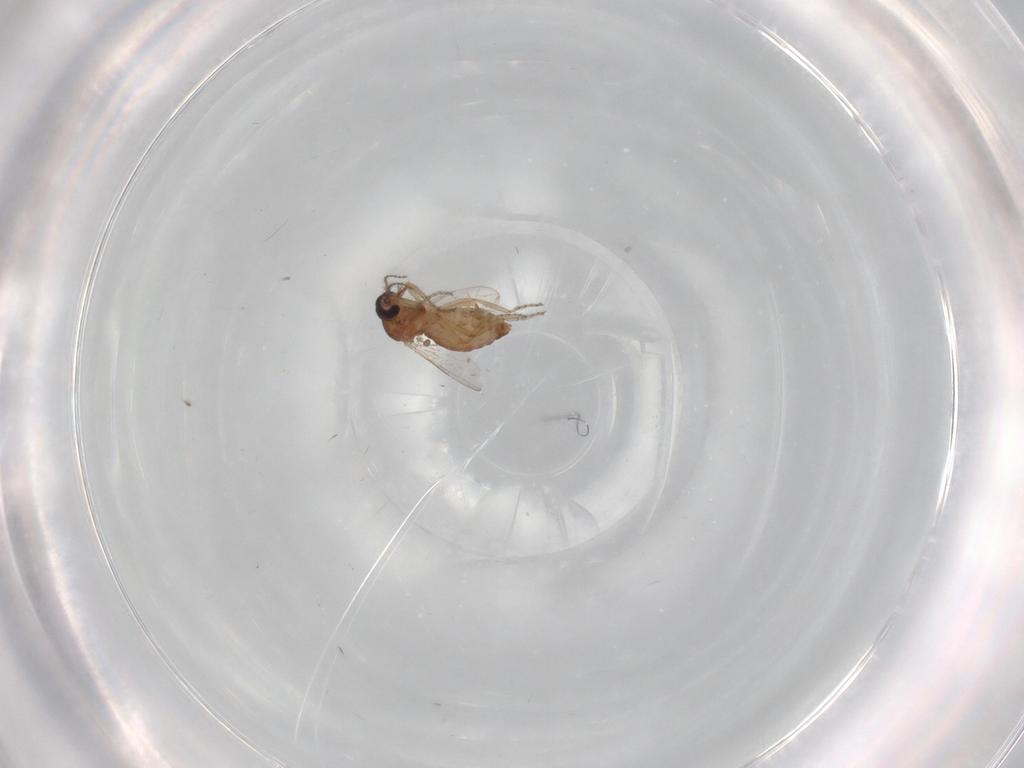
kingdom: Animalia
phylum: Arthropoda
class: Insecta
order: Diptera
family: Ceratopogonidae
